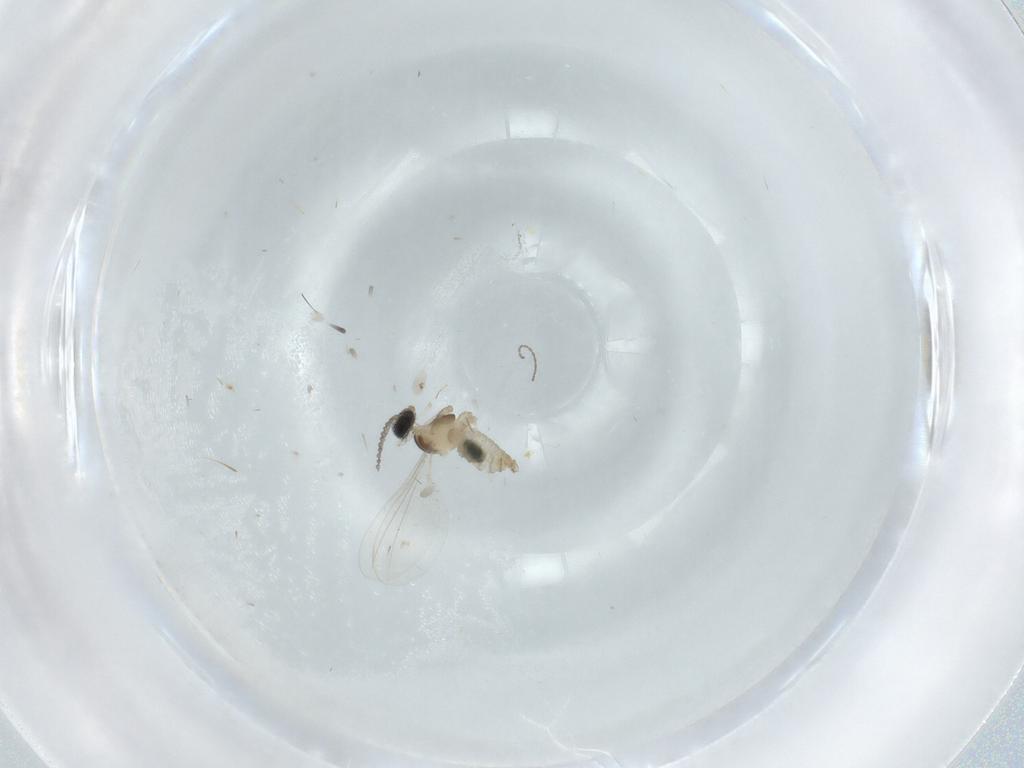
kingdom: Animalia
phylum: Arthropoda
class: Insecta
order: Diptera
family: Cecidomyiidae
